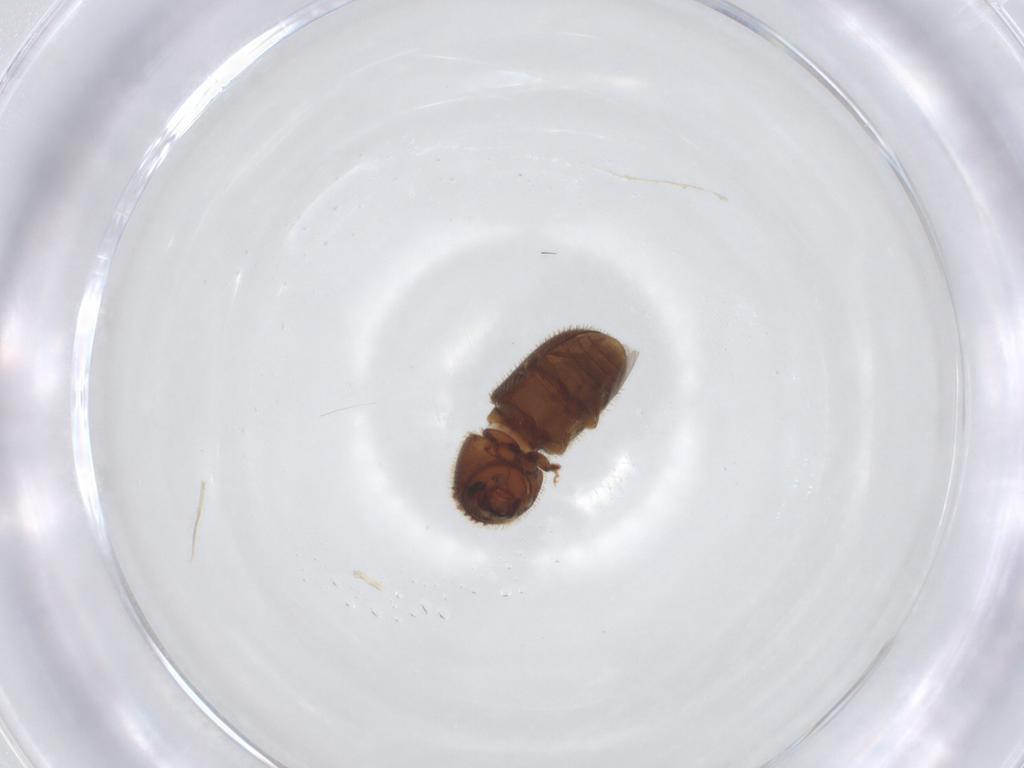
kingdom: Animalia
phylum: Arthropoda
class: Insecta
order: Coleoptera
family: Curculionidae
